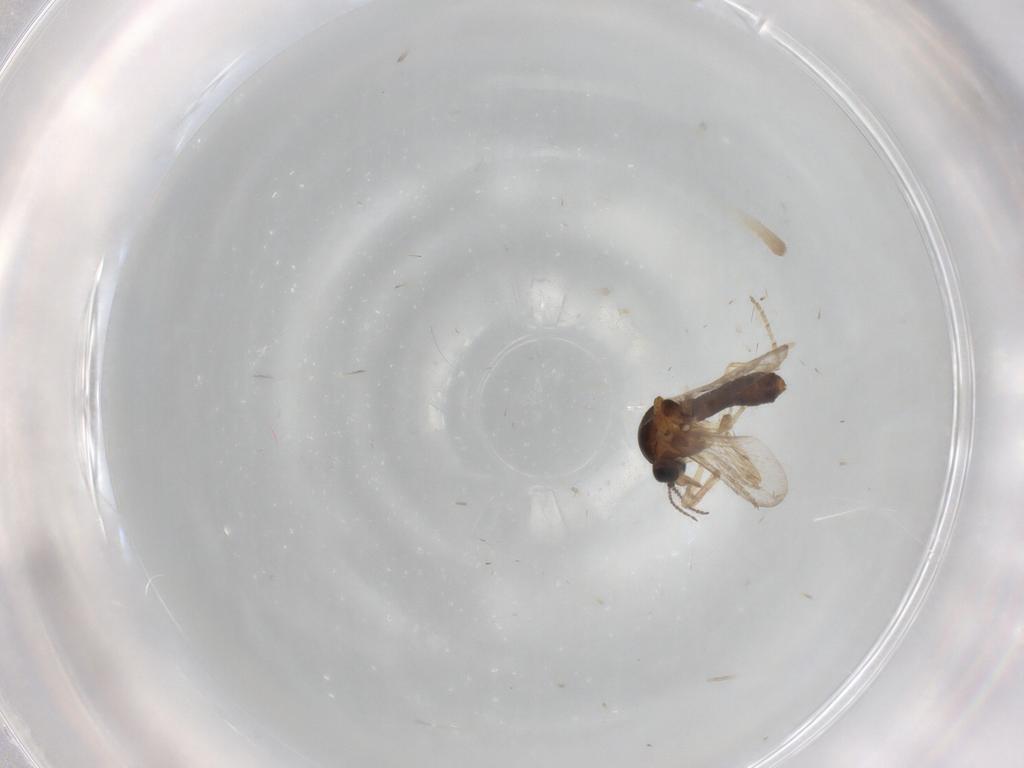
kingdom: Animalia
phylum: Arthropoda
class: Insecta
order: Diptera
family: Ceratopogonidae
